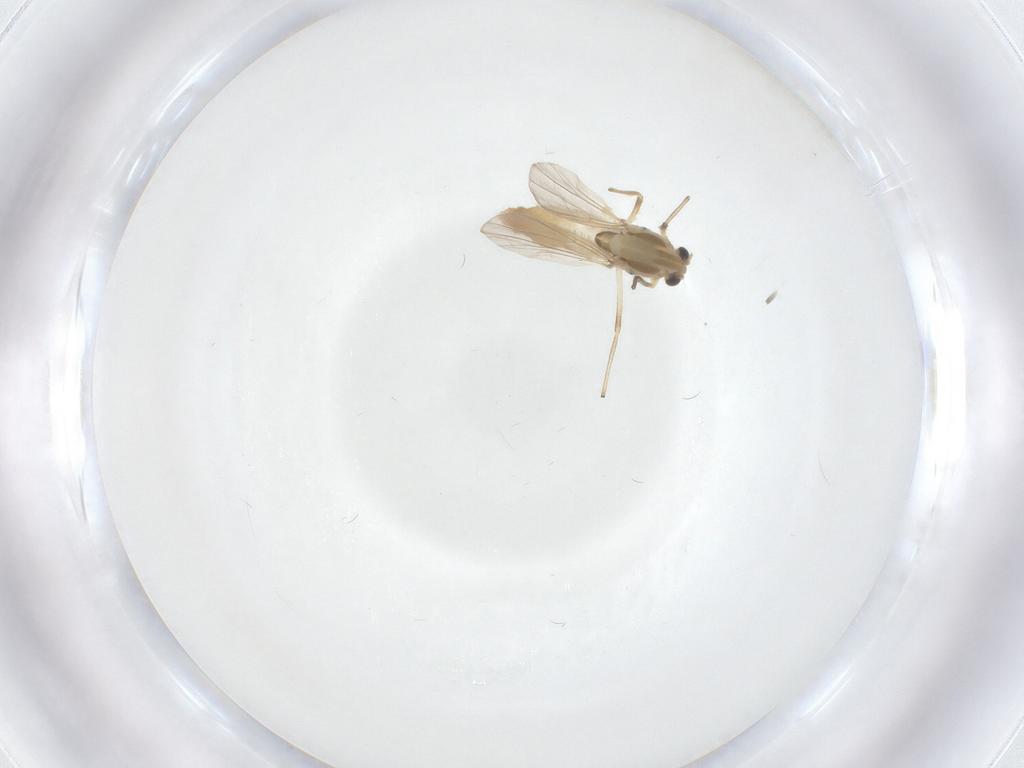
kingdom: Animalia
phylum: Arthropoda
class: Insecta
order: Diptera
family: Chironomidae
